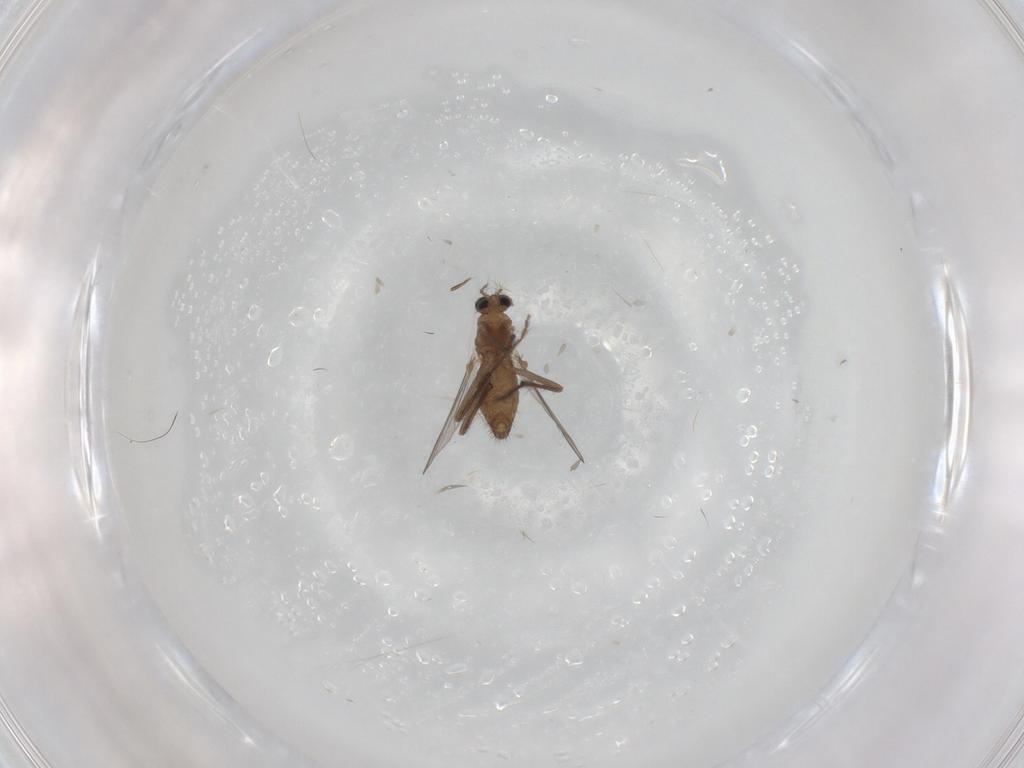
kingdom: Animalia
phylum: Arthropoda
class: Insecta
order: Diptera
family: Chironomidae
